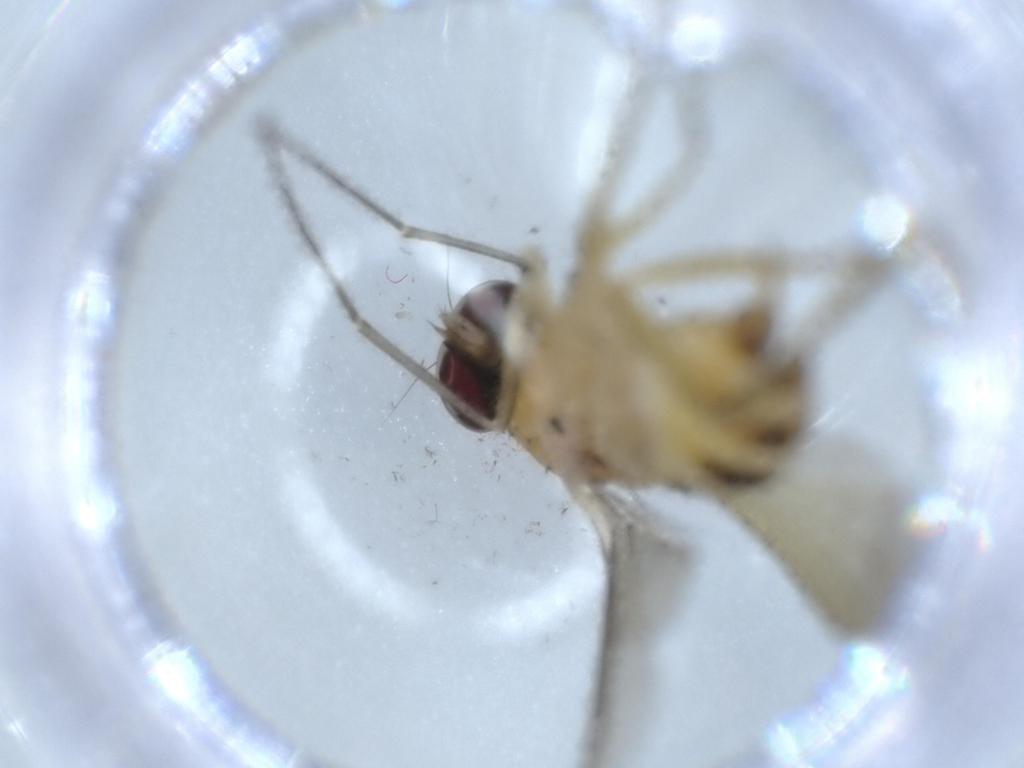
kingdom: Animalia
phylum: Arthropoda
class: Insecta
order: Diptera
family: Dolichopodidae
